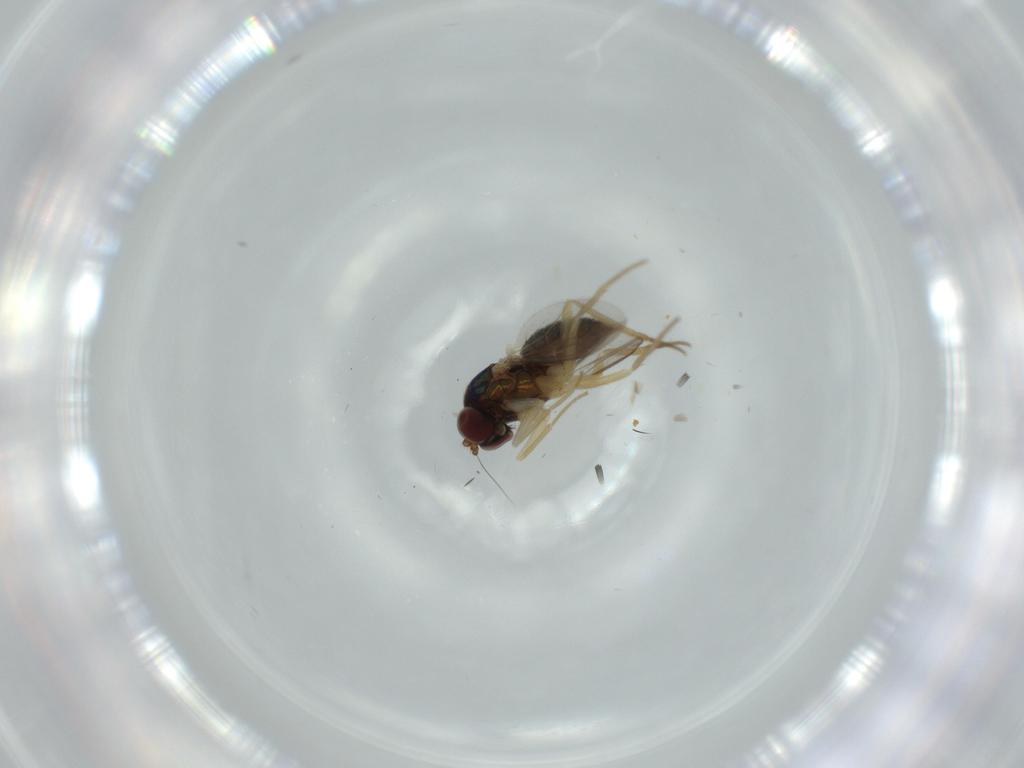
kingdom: Animalia
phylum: Arthropoda
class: Insecta
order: Diptera
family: Dolichopodidae
